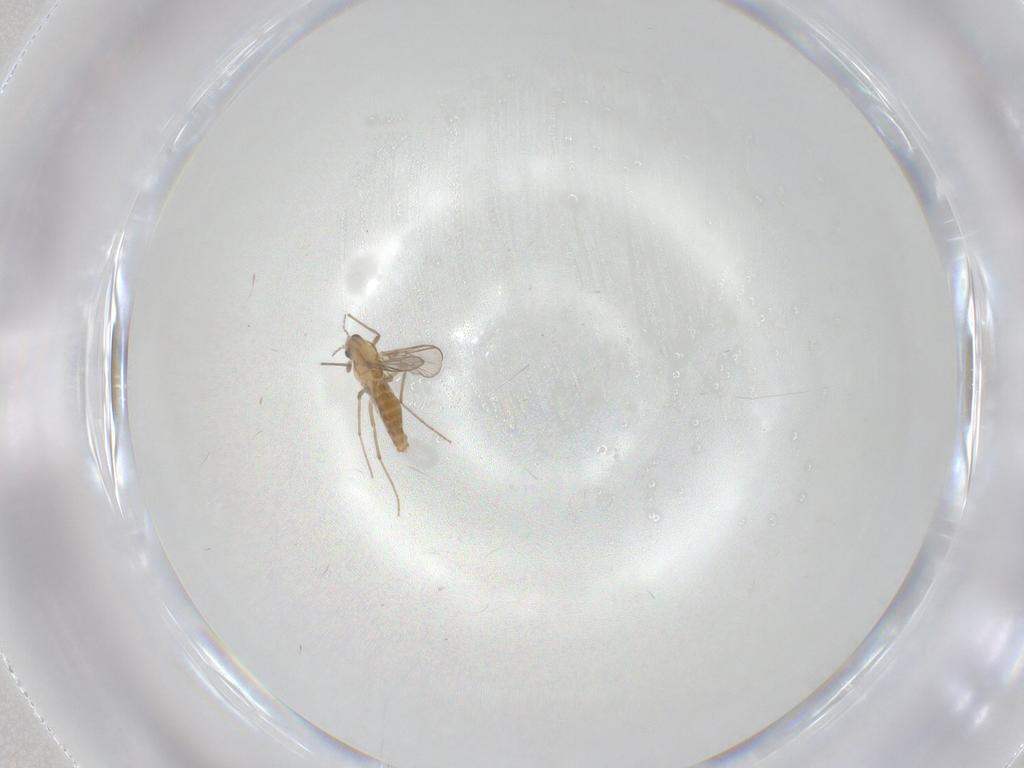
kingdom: Animalia
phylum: Arthropoda
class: Insecta
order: Diptera
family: Chironomidae
